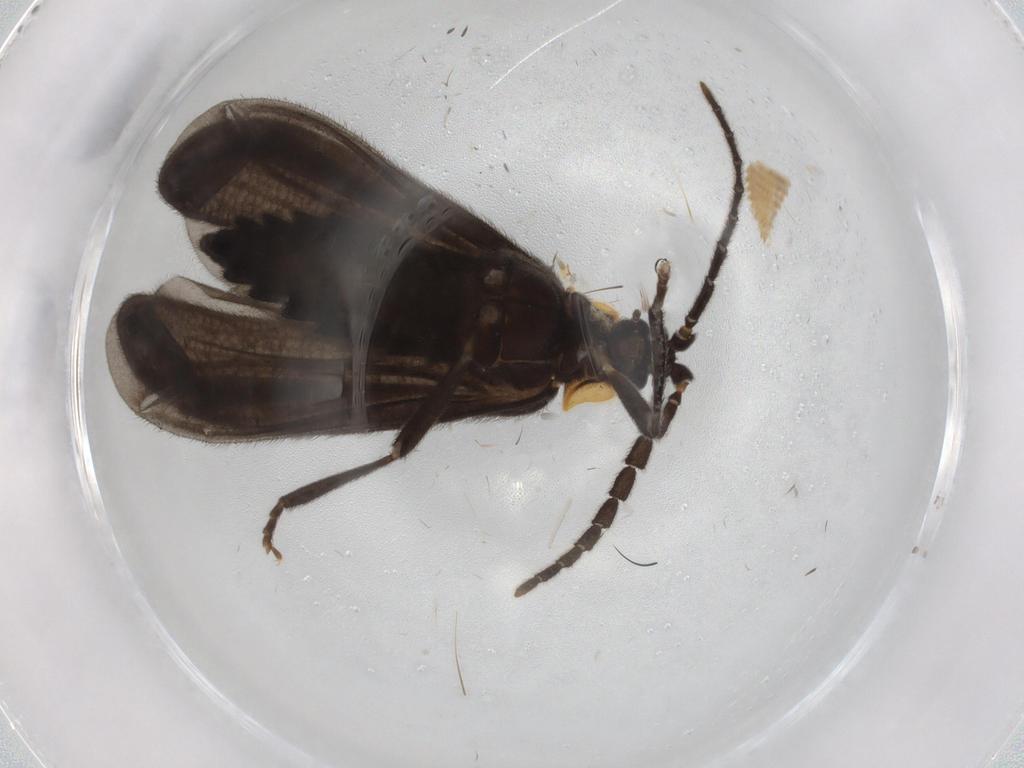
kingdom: Animalia
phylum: Arthropoda
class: Insecta
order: Coleoptera
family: Lycidae
